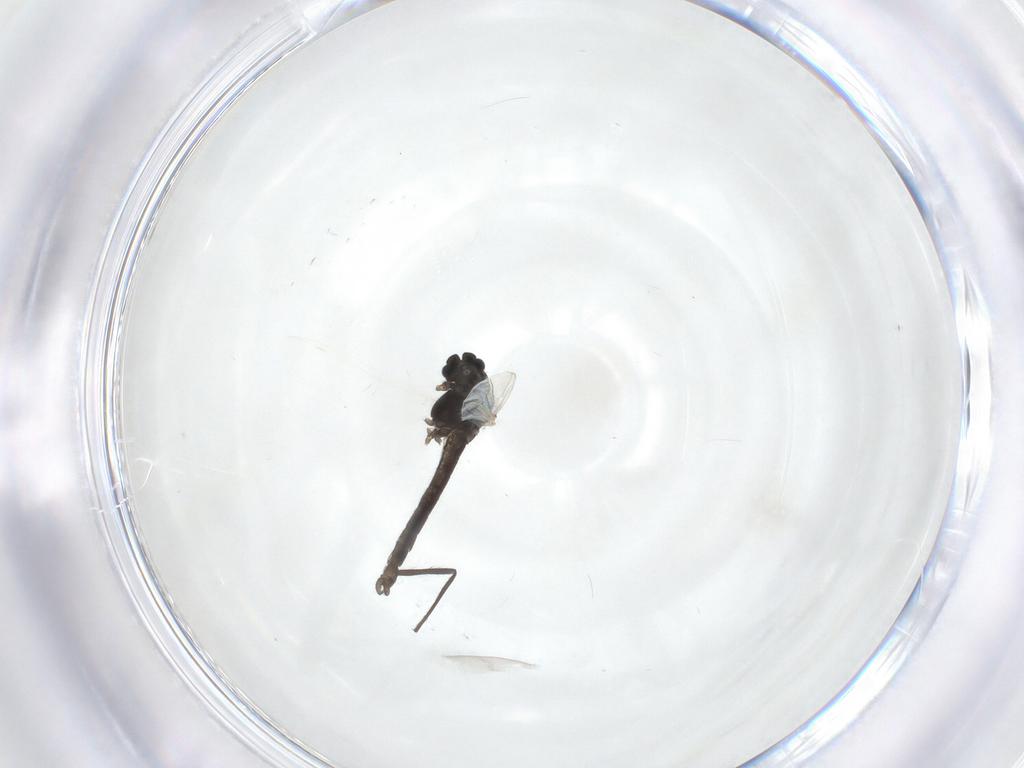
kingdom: Animalia
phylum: Arthropoda
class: Insecta
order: Diptera
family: Chironomidae
